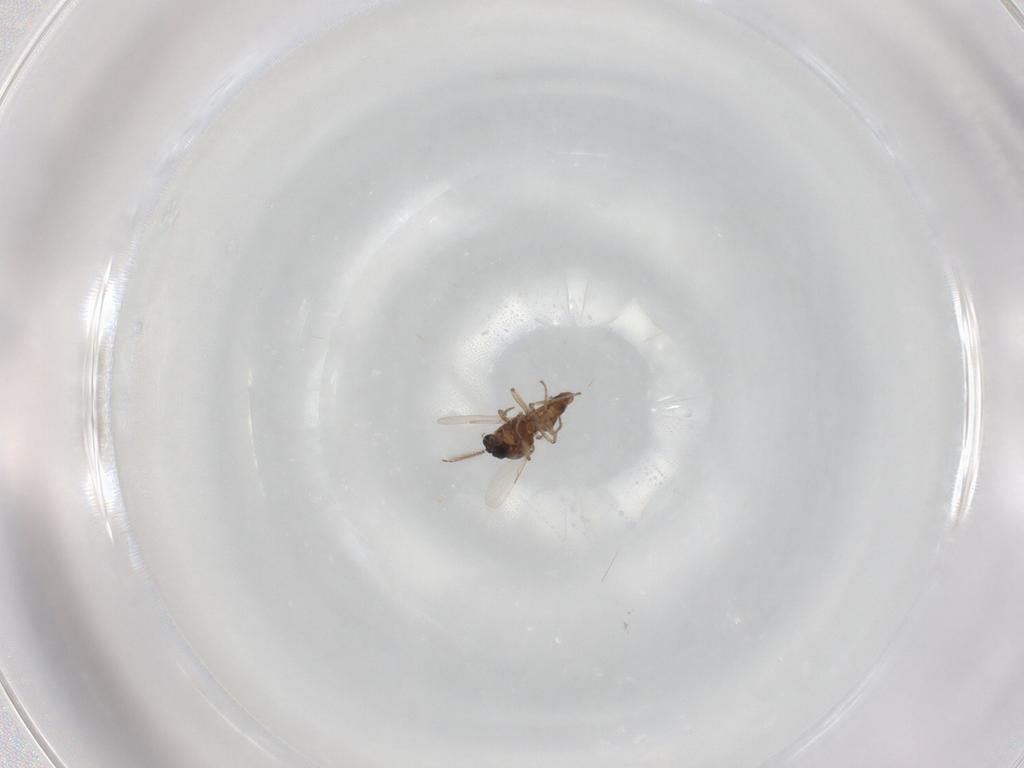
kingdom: Animalia
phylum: Arthropoda
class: Insecta
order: Diptera
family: Ceratopogonidae
